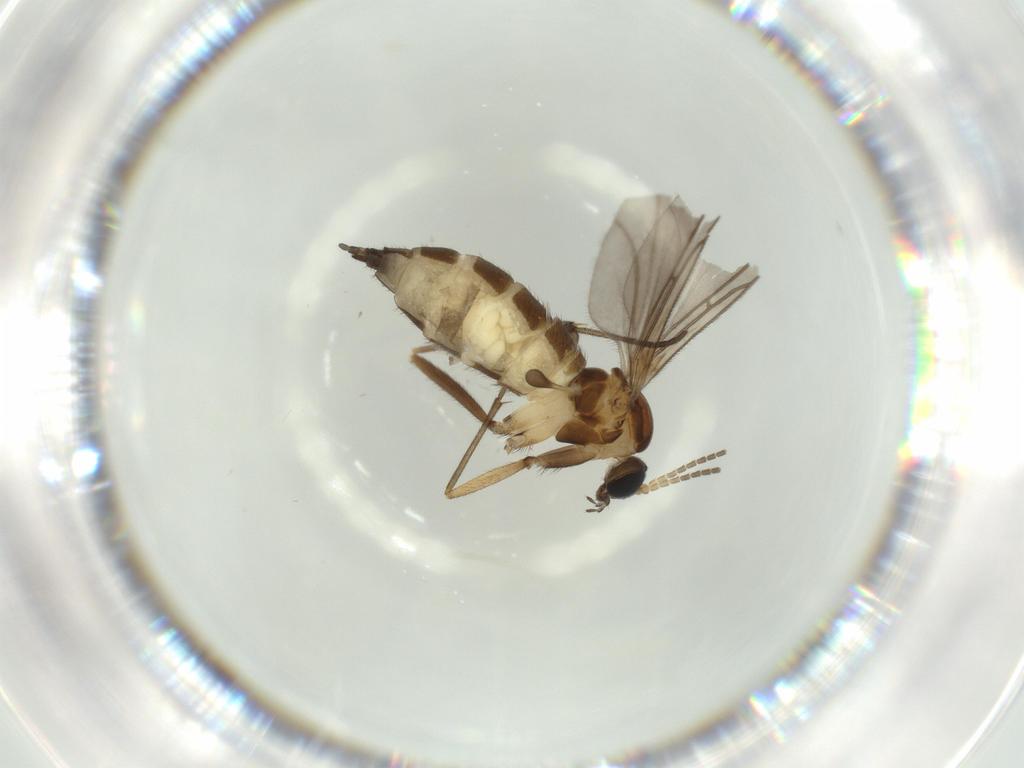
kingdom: Animalia
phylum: Arthropoda
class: Insecta
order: Diptera
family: Sciaridae
